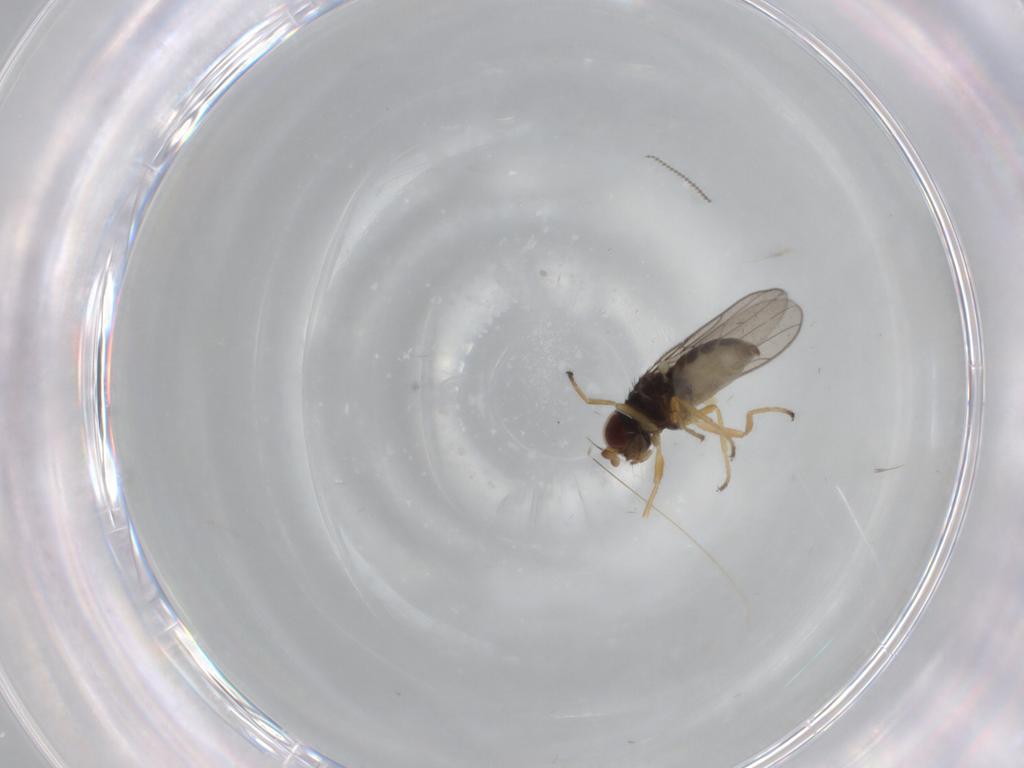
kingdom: Animalia
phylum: Arthropoda
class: Insecta
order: Diptera
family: Chloropidae
